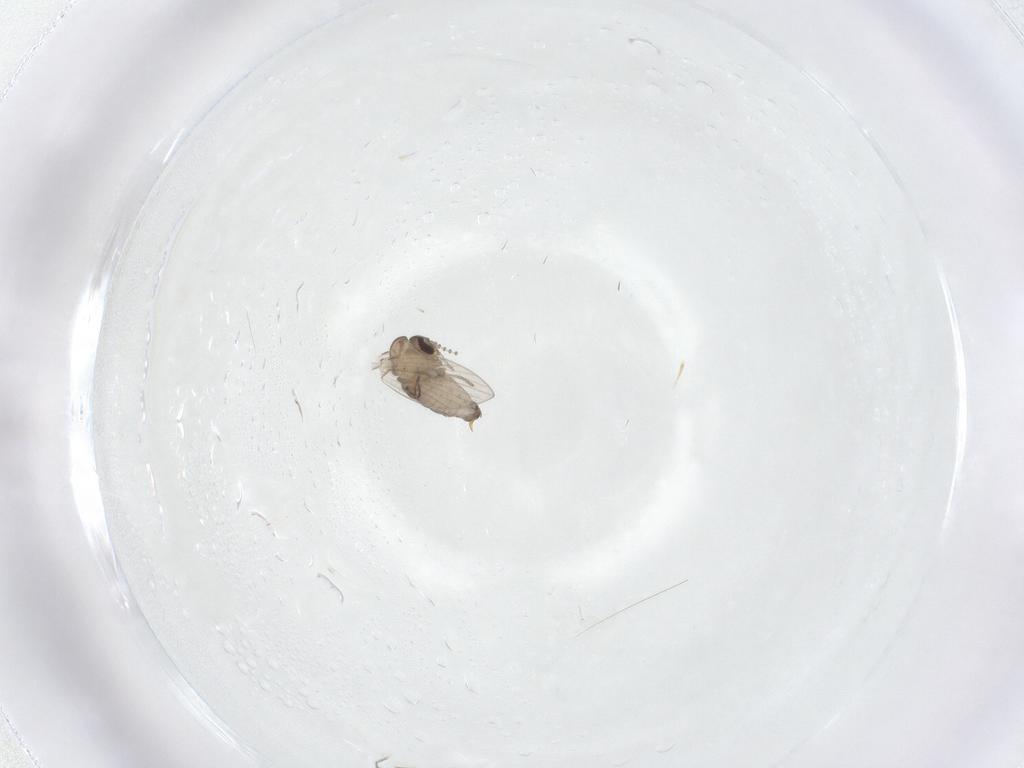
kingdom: Animalia
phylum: Arthropoda
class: Insecta
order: Diptera
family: Psychodidae
